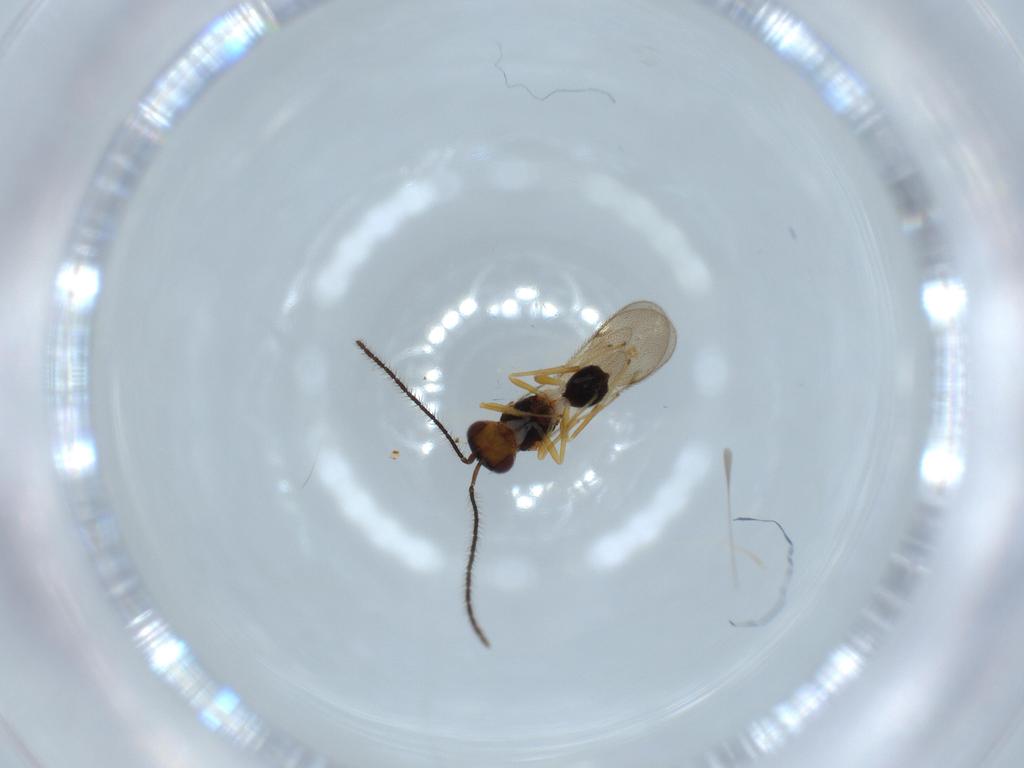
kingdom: Animalia
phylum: Arthropoda
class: Insecta
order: Hymenoptera
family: Diparidae
